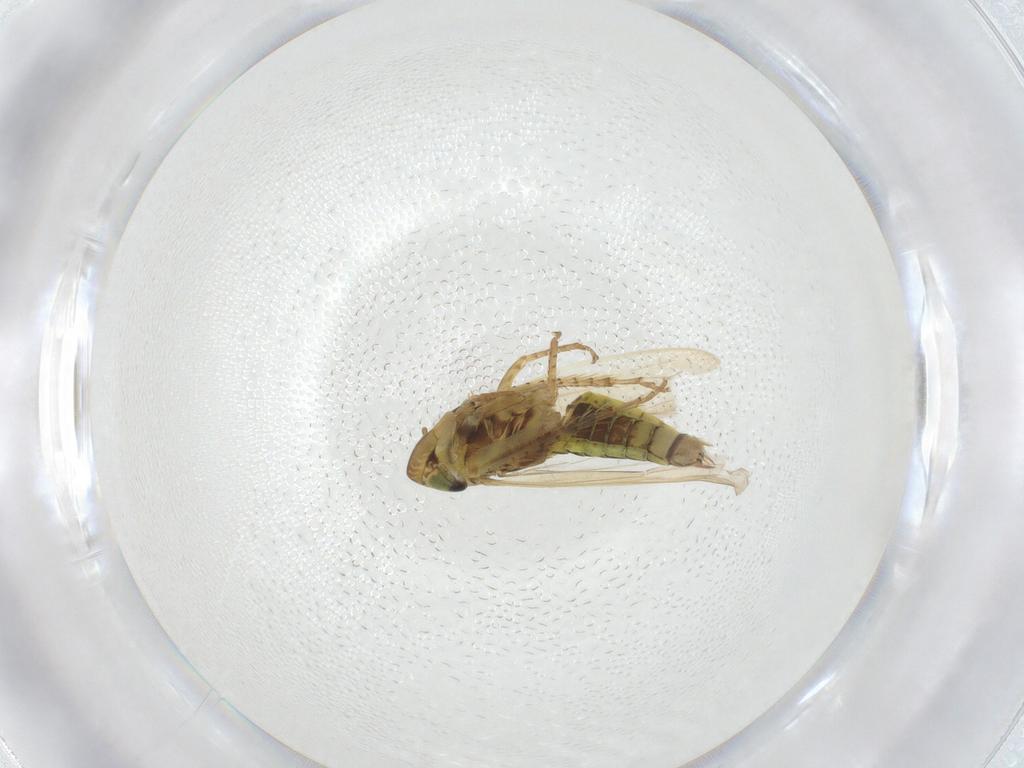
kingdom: Animalia
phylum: Arthropoda
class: Insecta
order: Hemiptera
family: Cicadellidae
